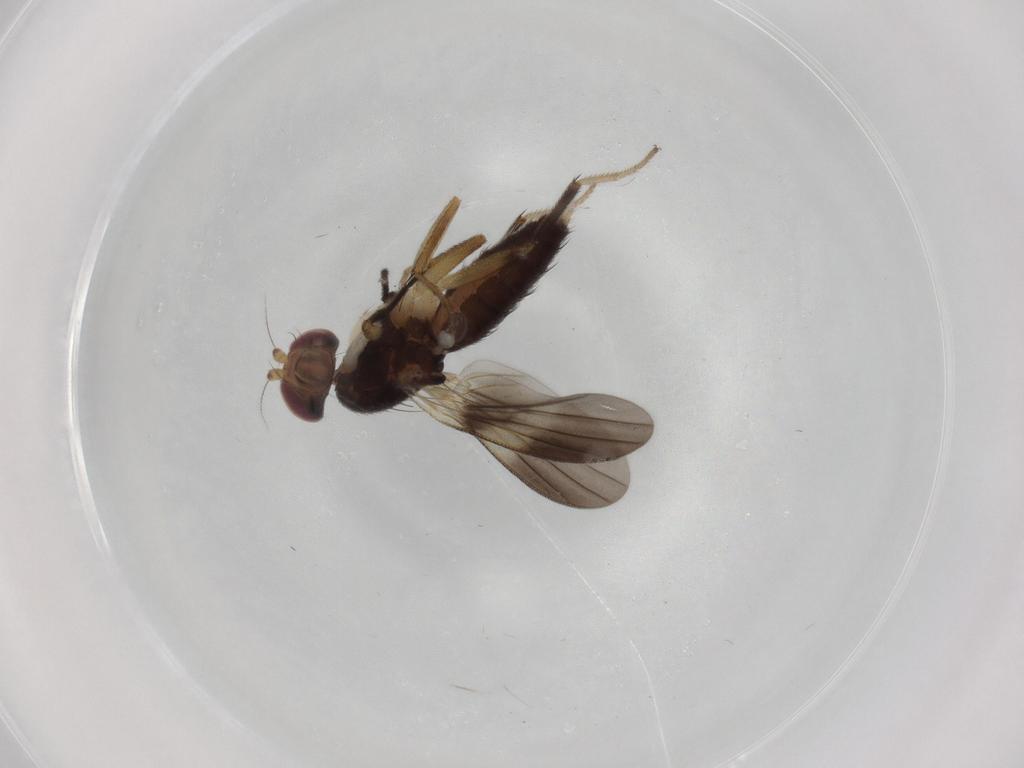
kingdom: Animalia
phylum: Arthropoda
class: Insecta
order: Diptera
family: Clusiidae
